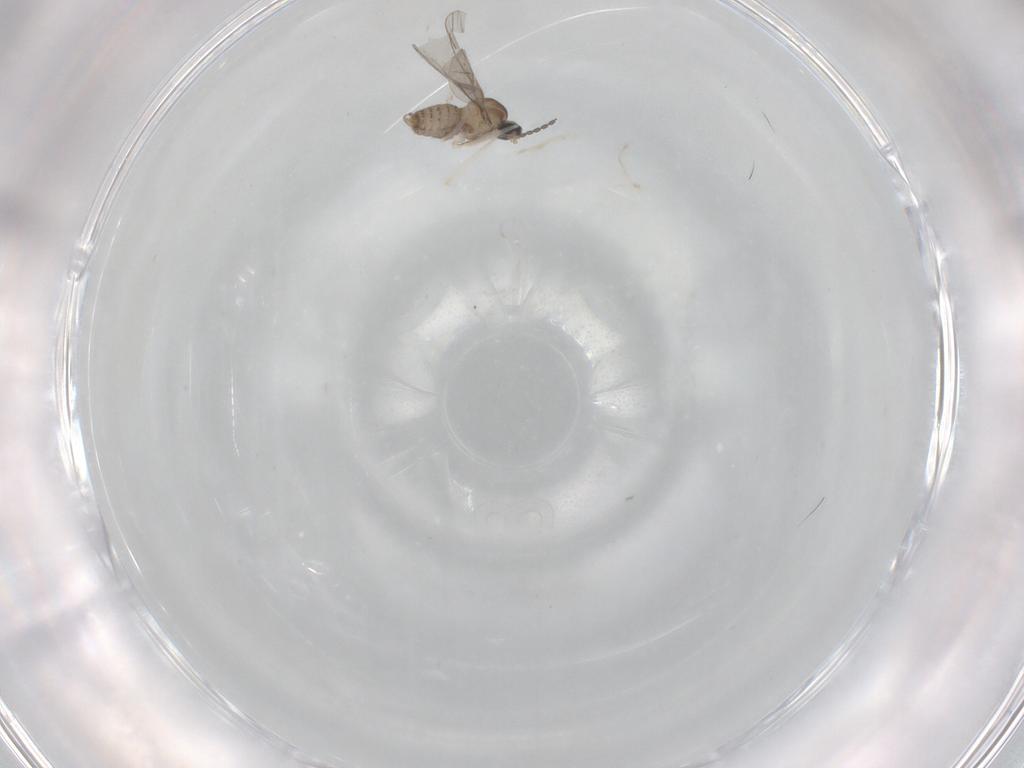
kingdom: Animalia
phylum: Arthropoda
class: Insecta
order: Diptera
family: Cecidomyiidae
